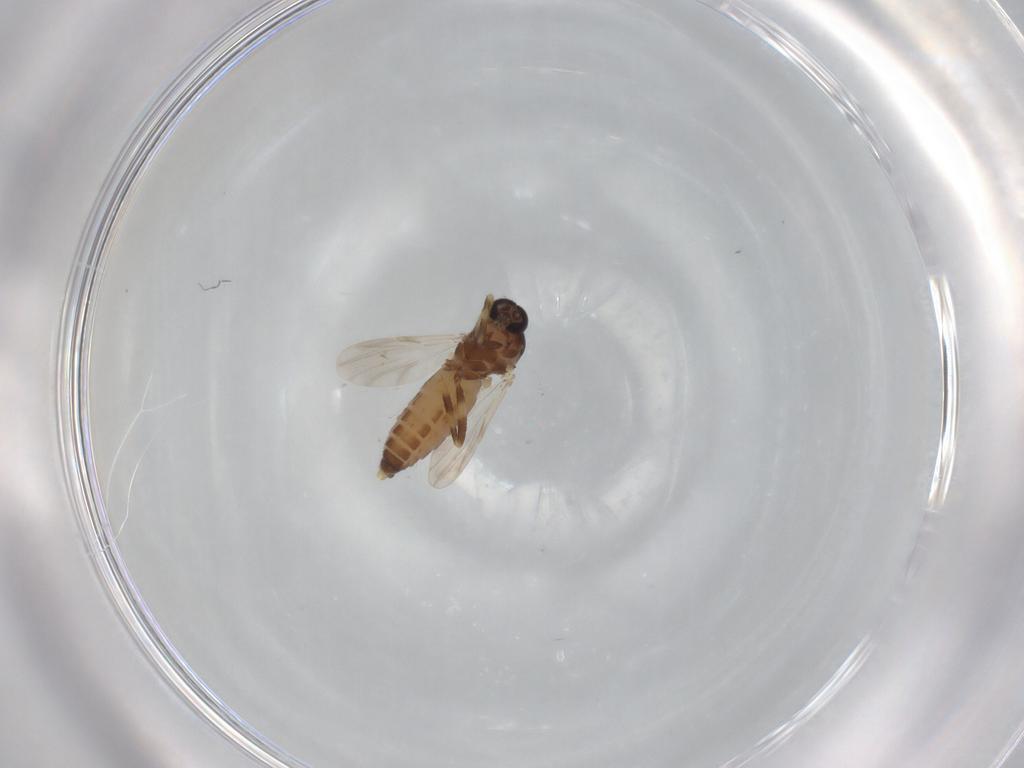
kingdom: Animalia
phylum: Arthropoda
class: Insecta
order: Diptera
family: Ceratopogonidae
